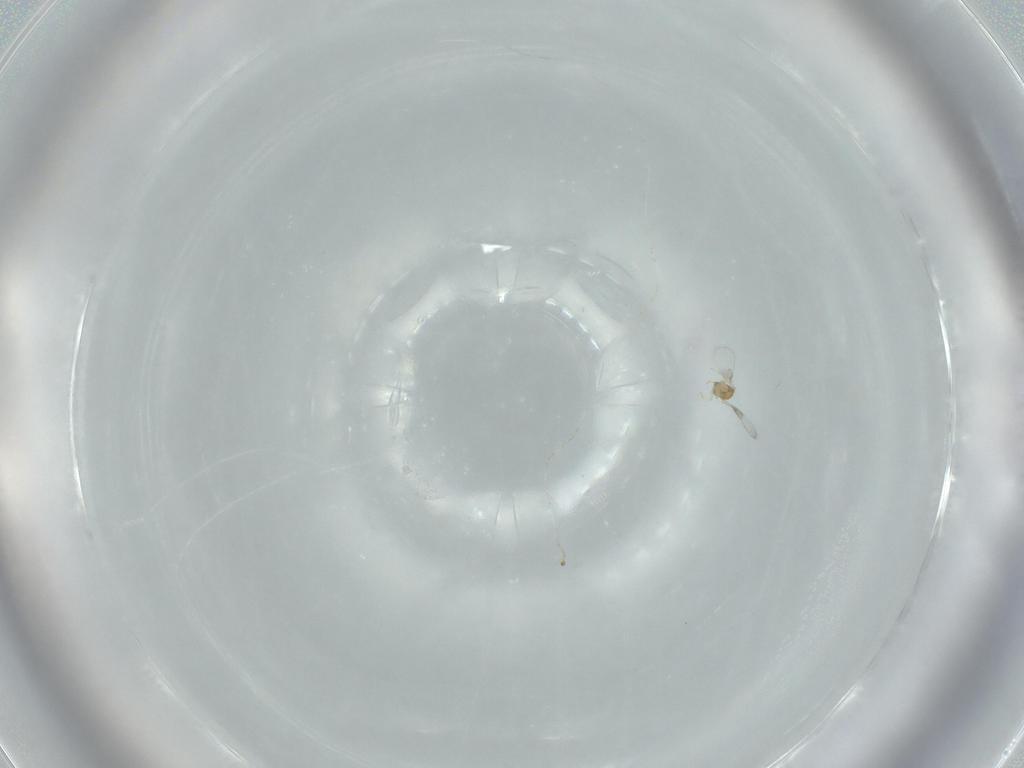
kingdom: Animalia
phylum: Arthropoda
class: Insecta
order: Hymenoptera
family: Trichogrammatidae
